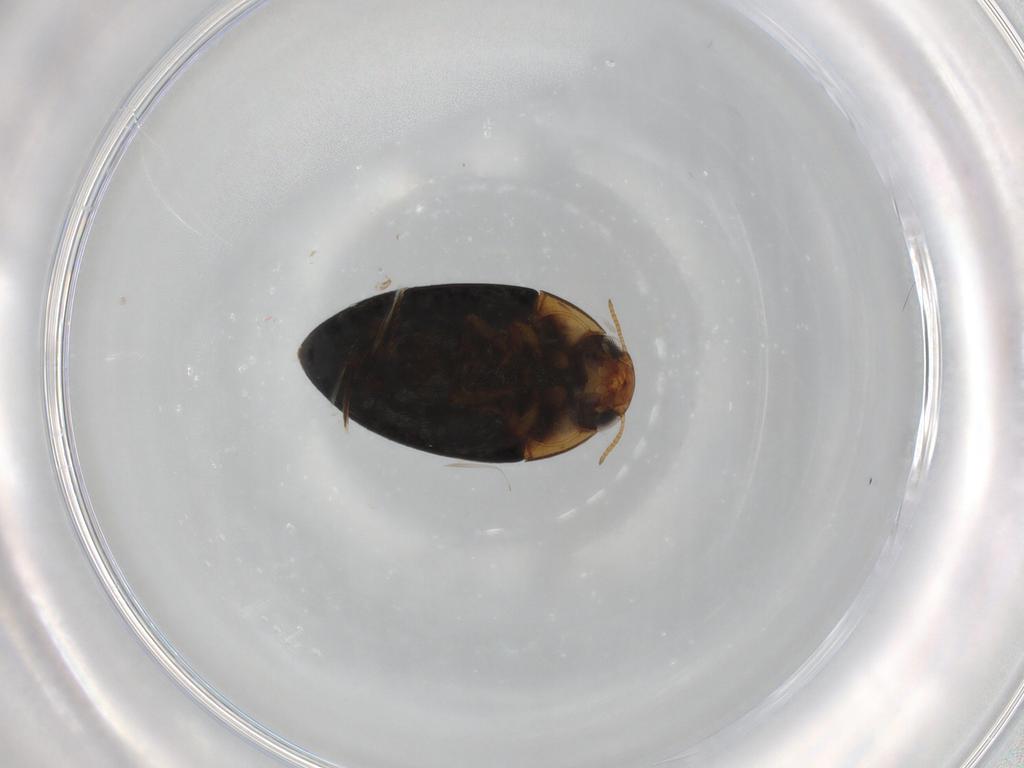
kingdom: Animalia
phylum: Arthropoda
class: Insecta
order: Coleoptera
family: Noteridae
